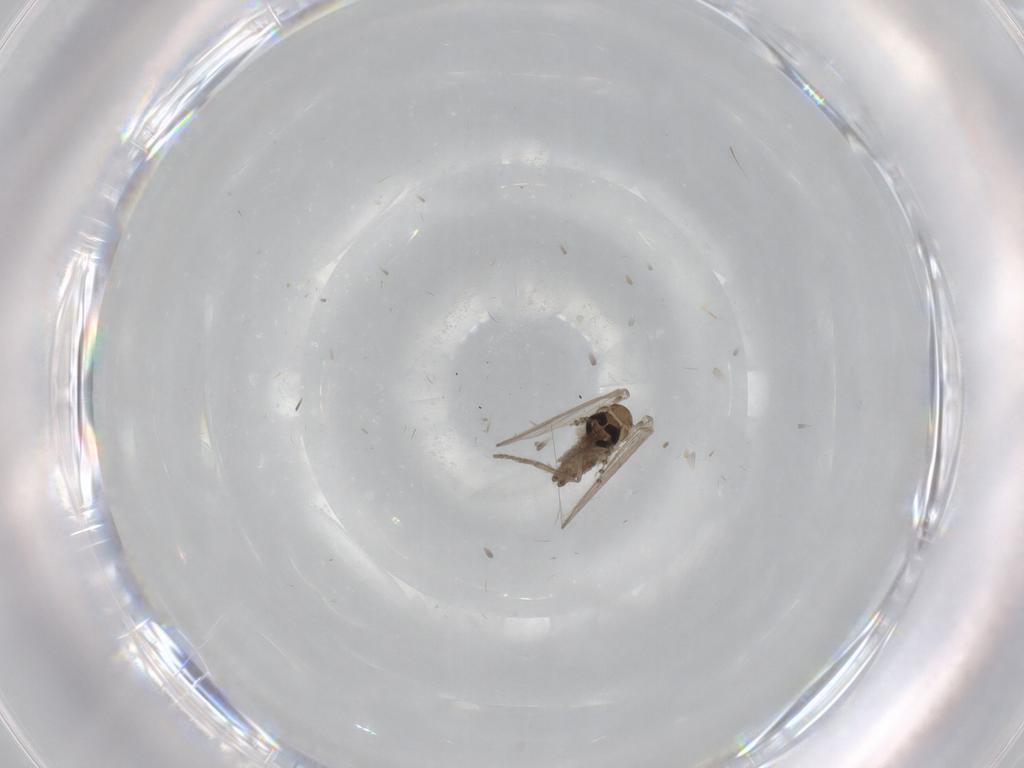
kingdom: Animalia
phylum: Arthropoda
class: Insecta
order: Diptera
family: Psychodidae
